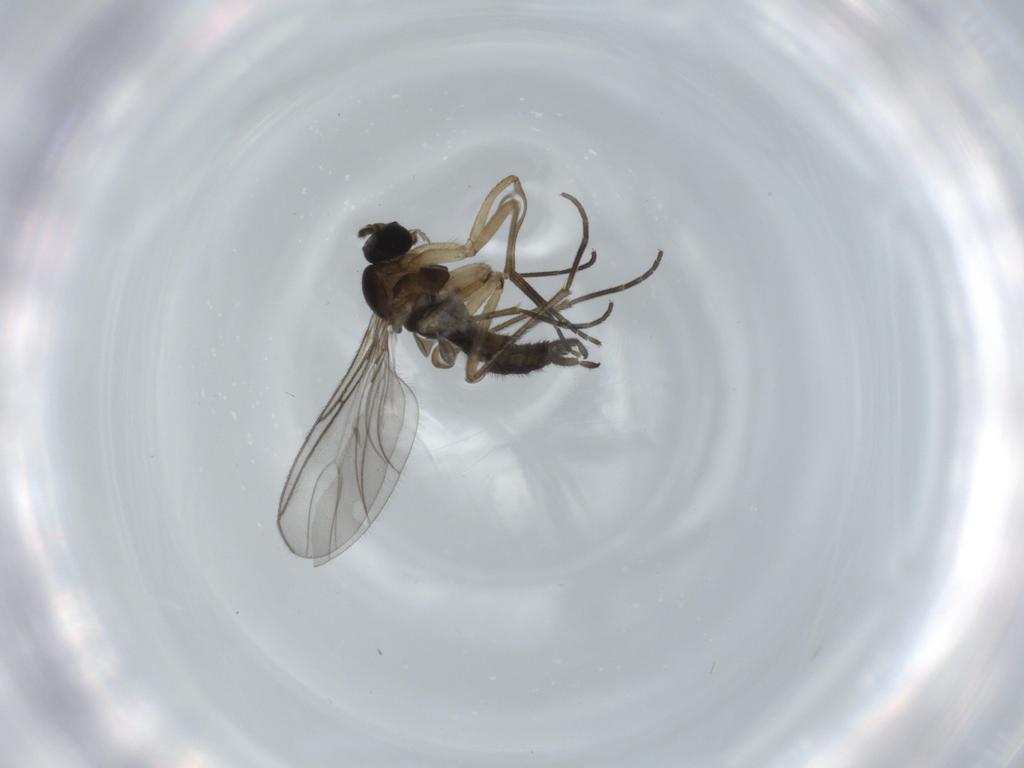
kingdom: Animalia
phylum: Arthropoda
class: Insecta
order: Diptera
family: Sciaridae
